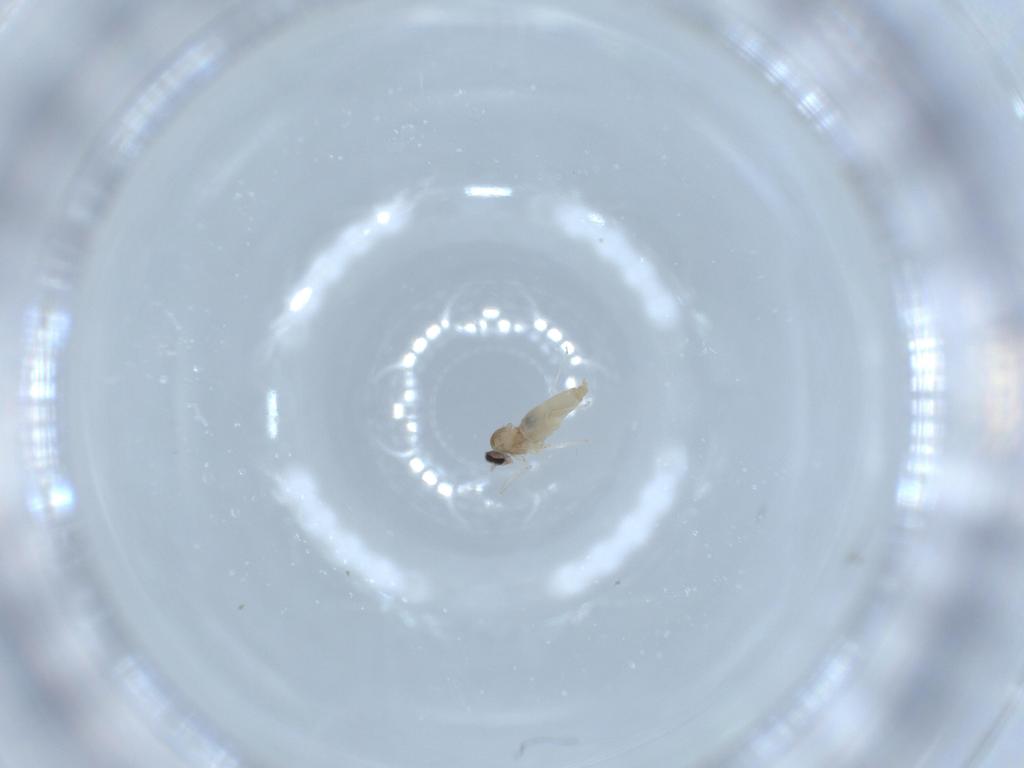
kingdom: Animalia
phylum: Arthropoda
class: Insecta
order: Diptera
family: Cecidomyiidae
